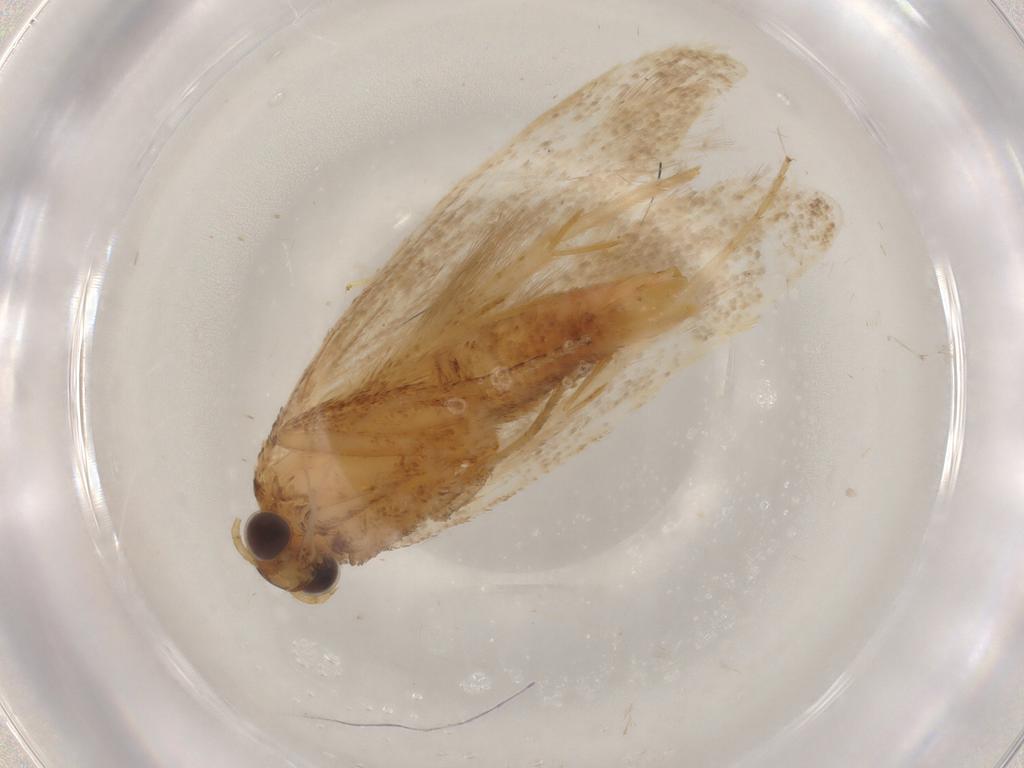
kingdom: Animalia
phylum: Arthropoda
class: Insecta
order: Lepidoptera
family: Autostichidae
